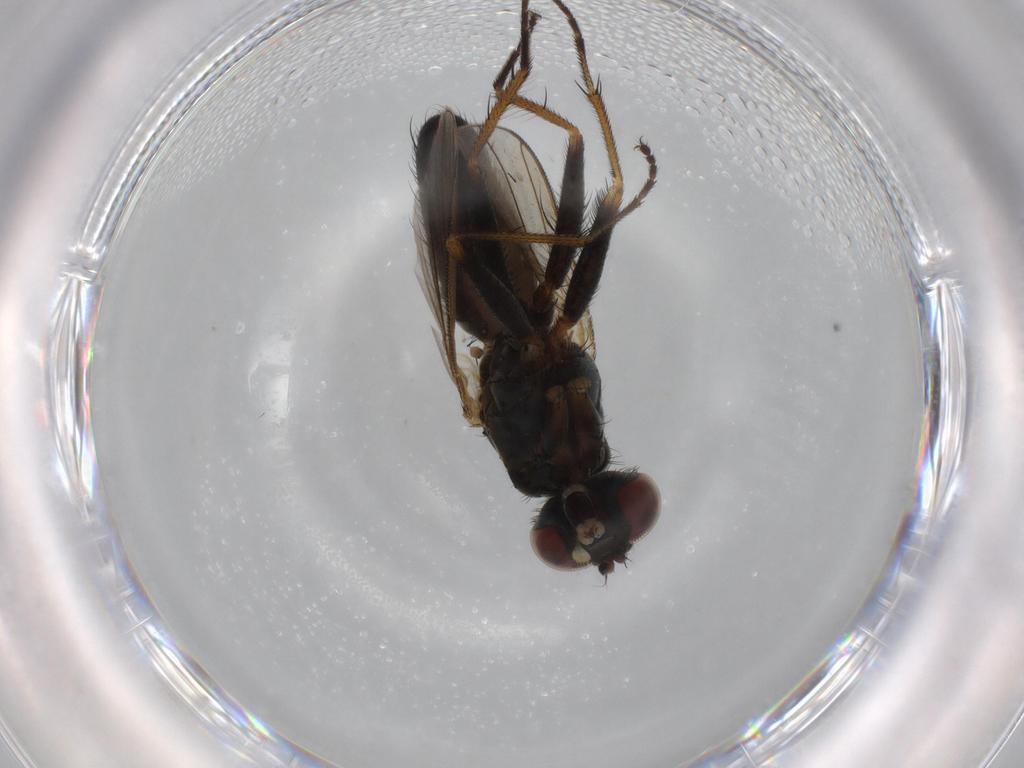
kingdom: Animalia
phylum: Arthropoda
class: Insecta
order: Diptera
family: Muscidae
